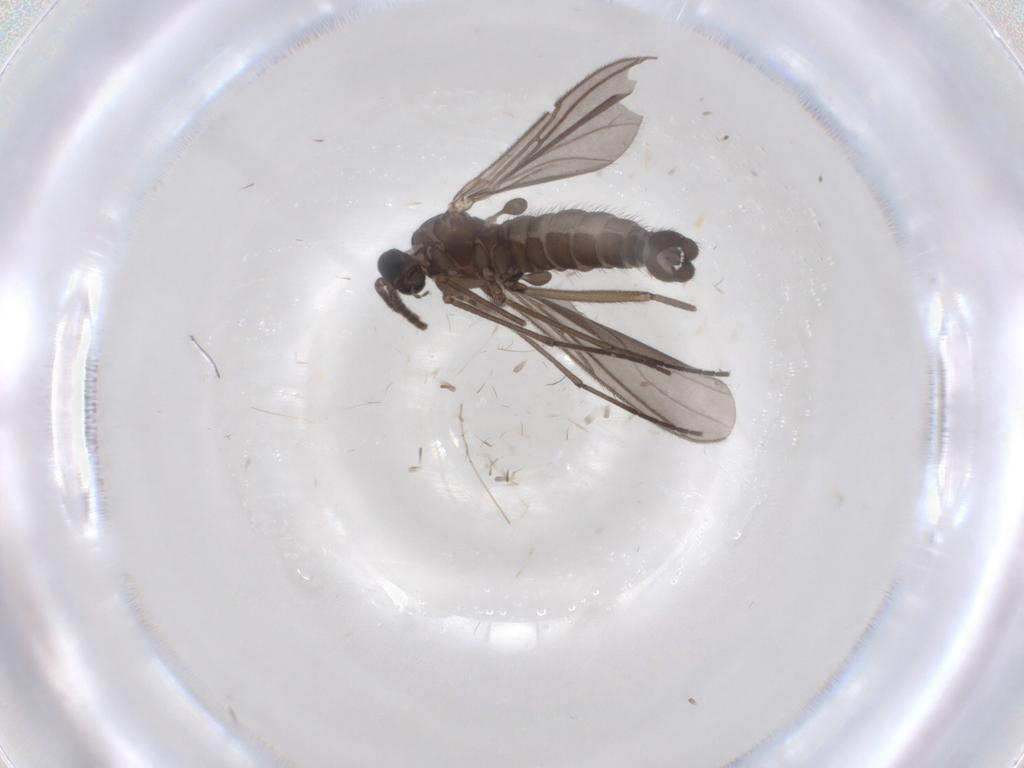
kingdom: Animalia
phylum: Arthropoda
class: Insecta
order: Diptera
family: Sciaridae
